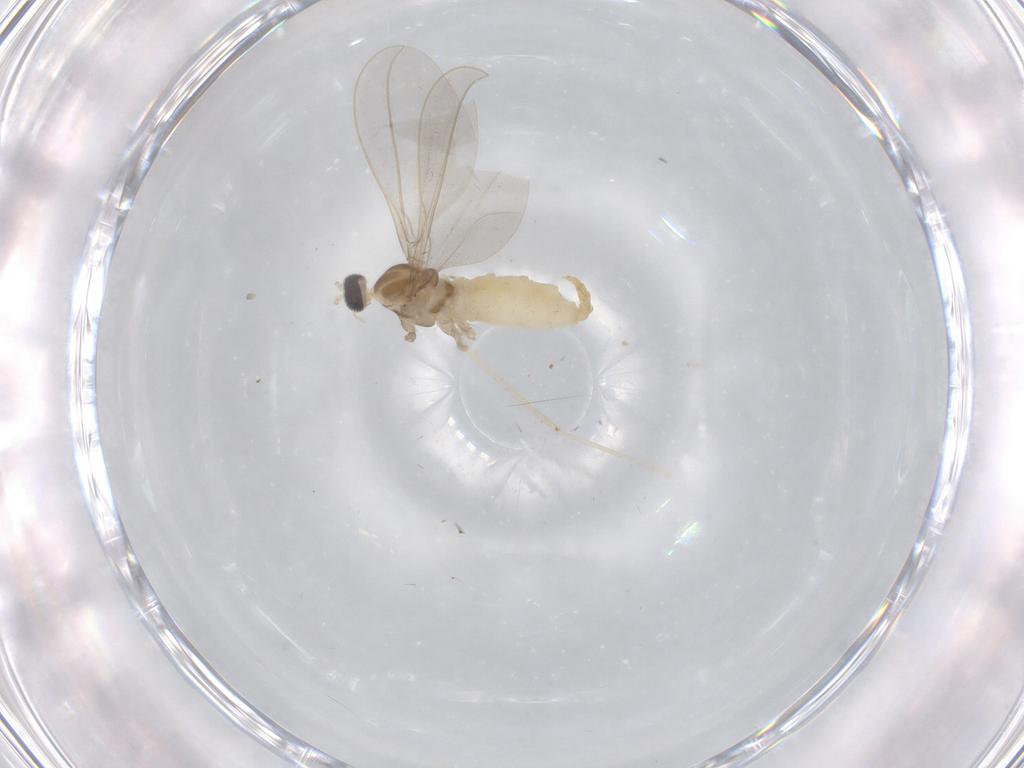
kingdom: Animalia
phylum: Arthropoda
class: Insecta
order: Diptera
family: Cecidomyiidae
